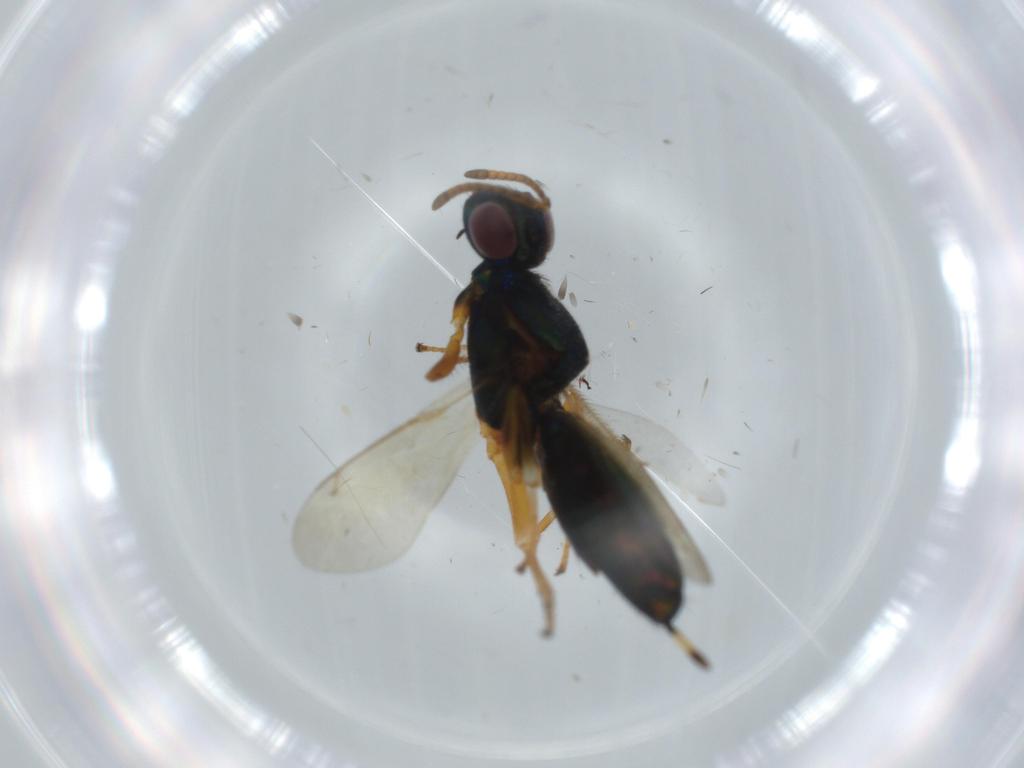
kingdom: Animalia
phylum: Arthropoda
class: Insecta
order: Hymenoptera
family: Eupelmidae
